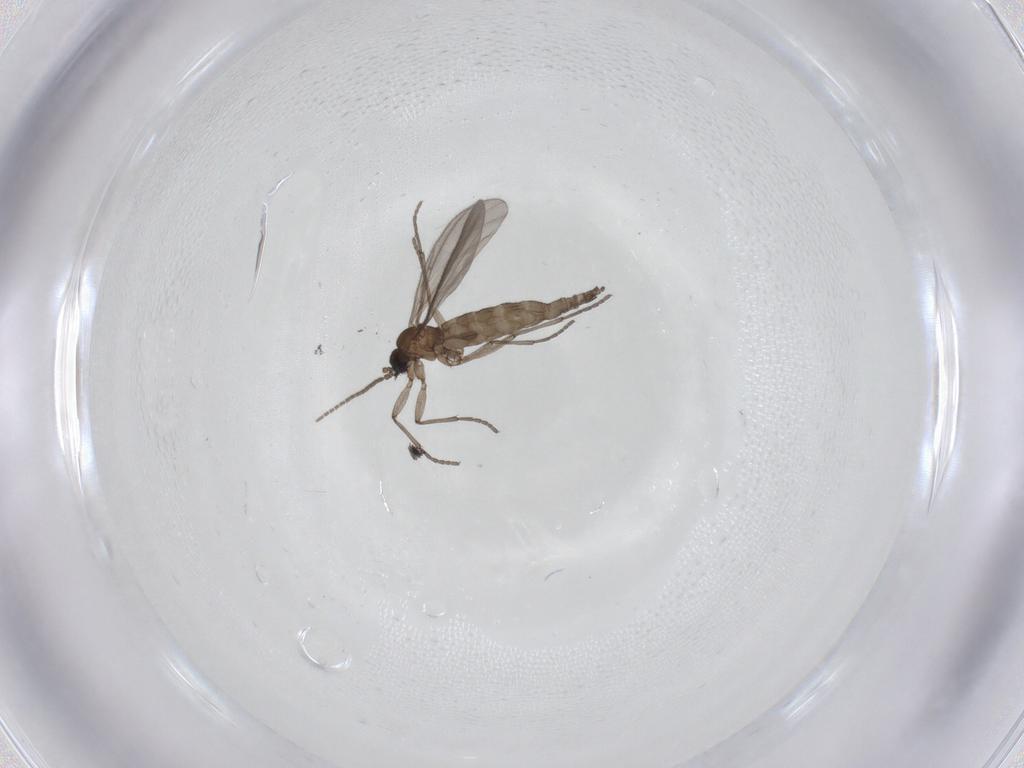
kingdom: Animalia
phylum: Arthropoda
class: Insecta
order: Diptera
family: Sciaridae
